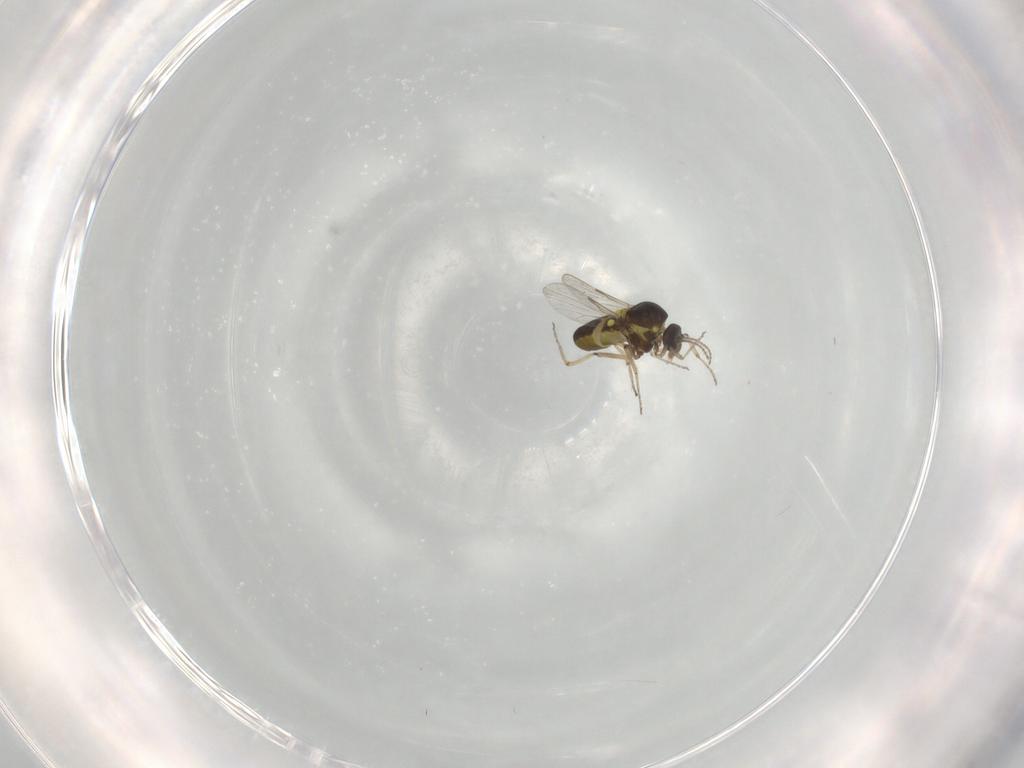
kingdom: Animalia
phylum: Arthropoda
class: Insecta
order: Diptera
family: Ceratopogonidae
